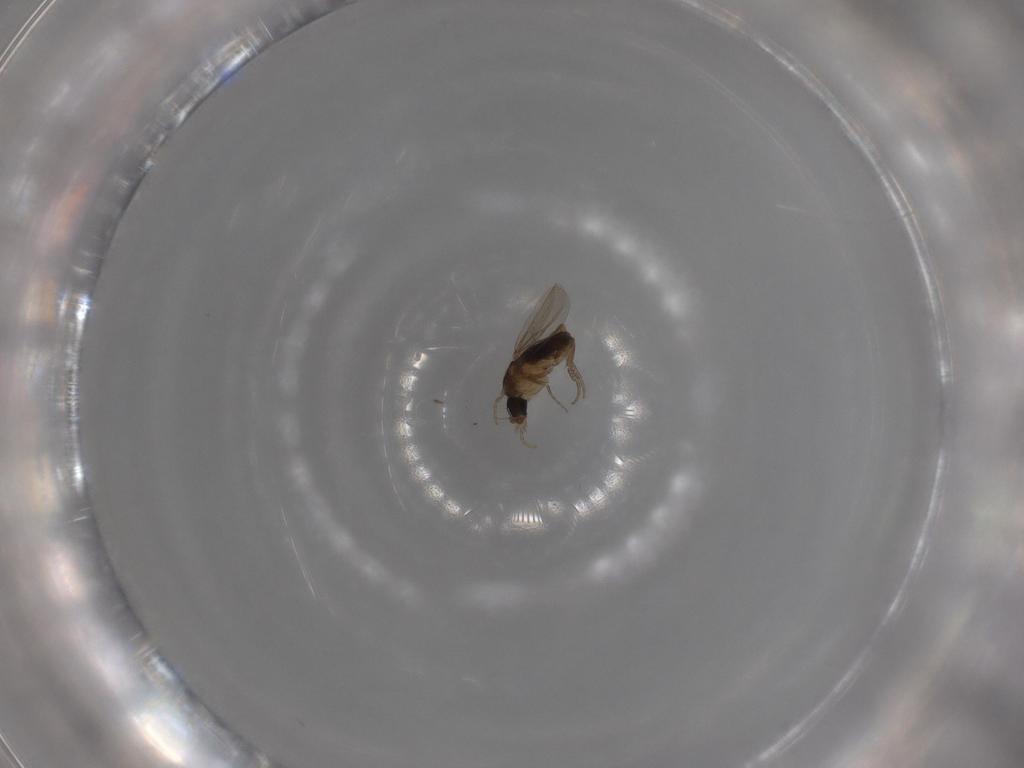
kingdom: Animalia
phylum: Arthropoda
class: Insecta
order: Diptera
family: Phoridae
